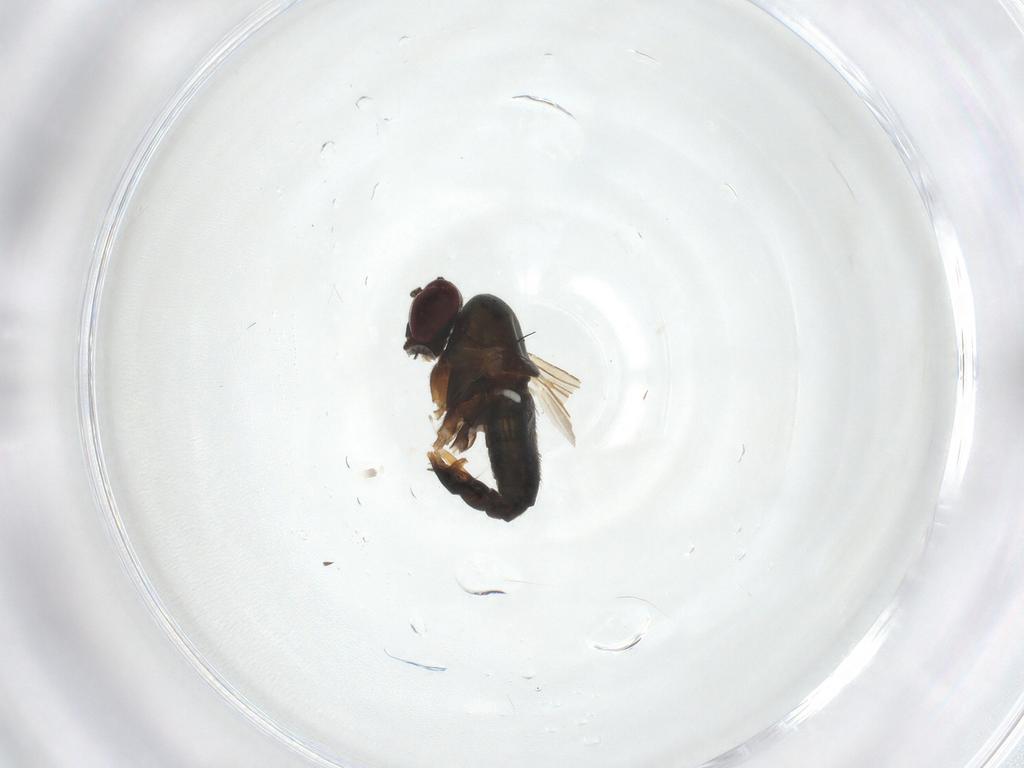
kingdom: Animalia
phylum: Arthropoda
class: Insecta
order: Diptera
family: Dolichopodidae
